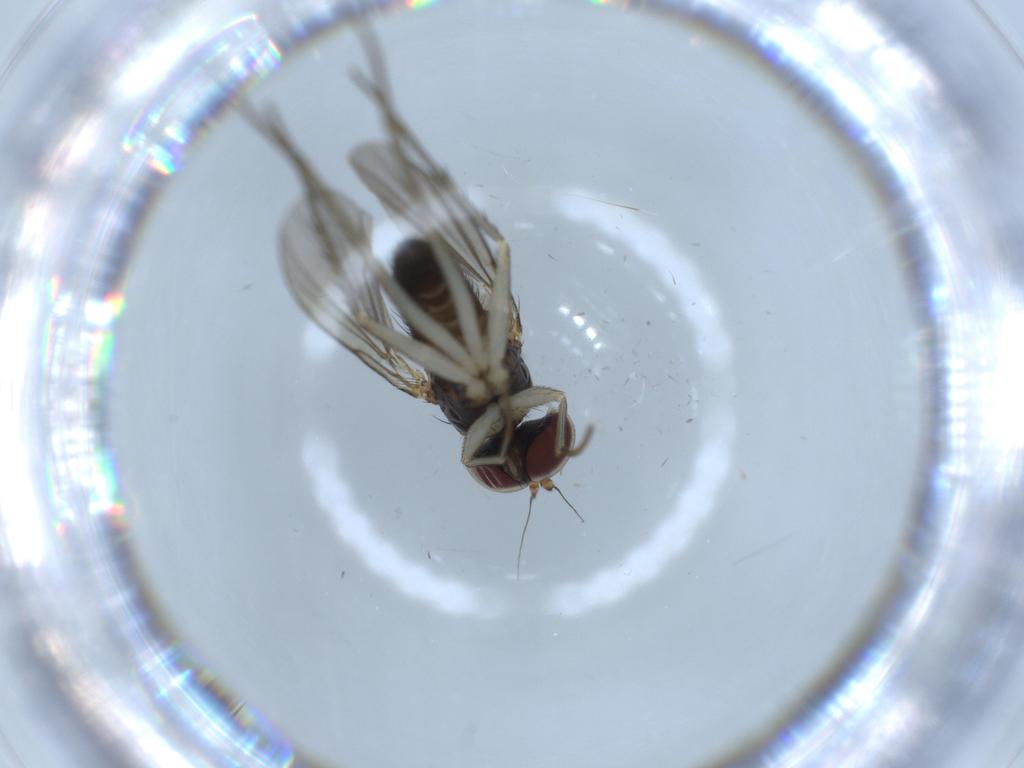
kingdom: Animalia
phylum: Arthropoda
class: Insecta
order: Diptera
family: Dolichopodidae
